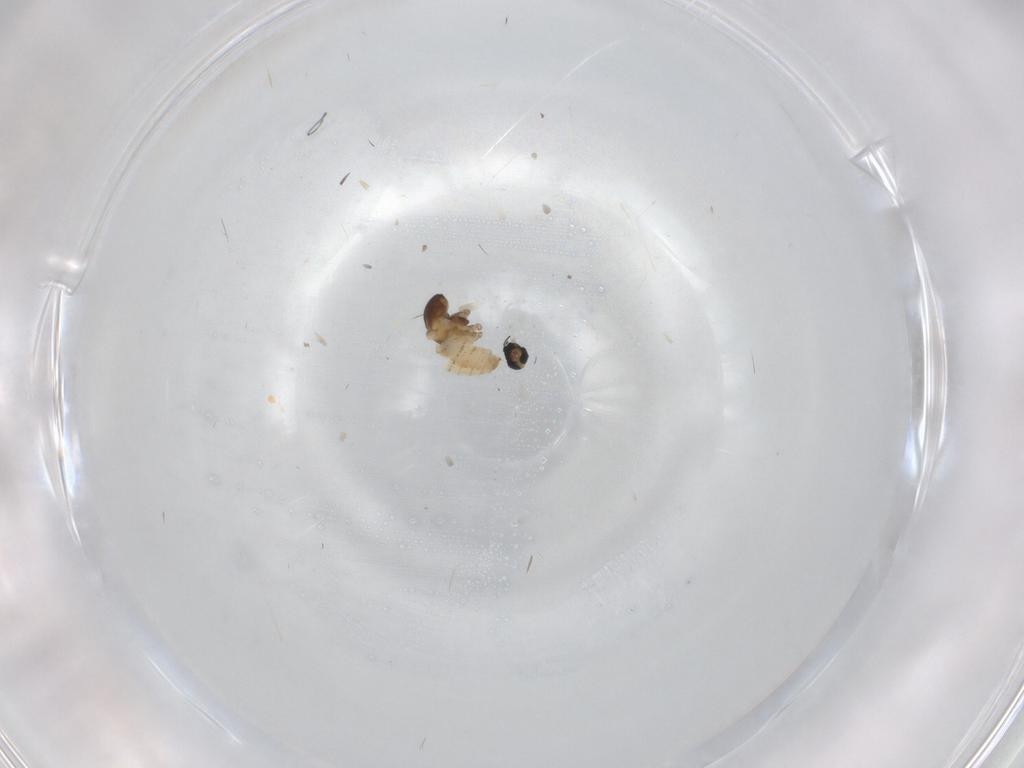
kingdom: Animalia
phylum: Arthropoda
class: Insecta
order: Diptera
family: Cecidomyiidae
